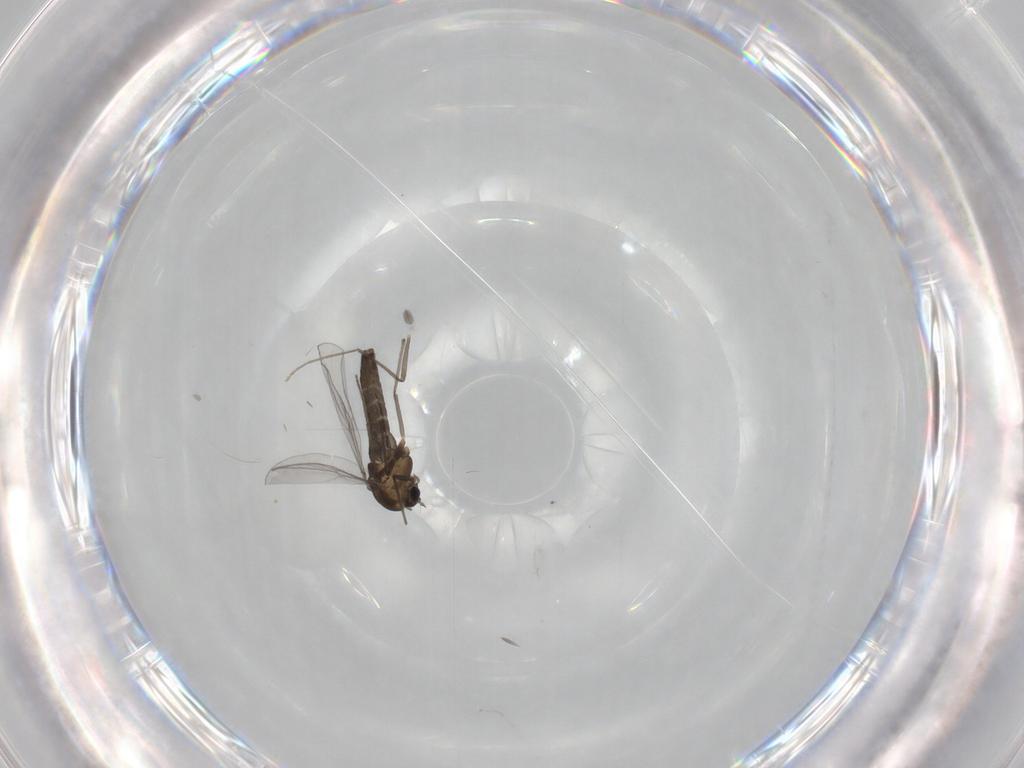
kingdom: Animalia
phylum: Arthropoda
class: Insecta
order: Diptera
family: Chironomidae
